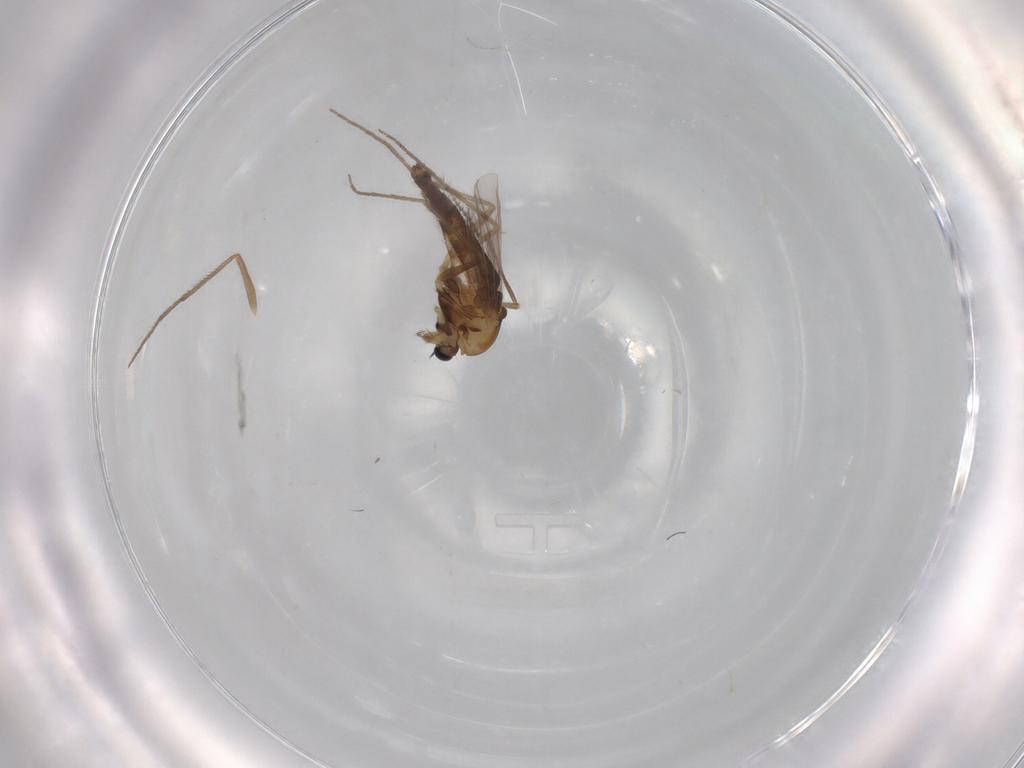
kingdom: Animalia
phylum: Arthropoda
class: Insecta
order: Diptera
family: Chironomidae
